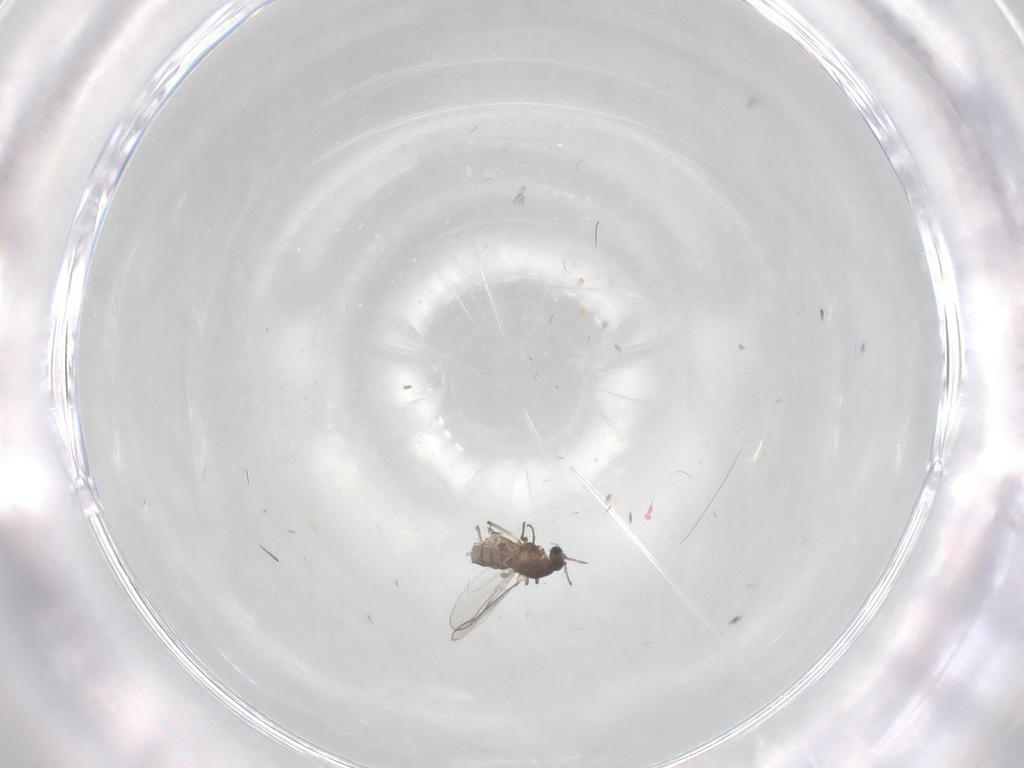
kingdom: Animalia
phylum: Arthropoda
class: Insecta
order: Diptera
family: Chironomidae
